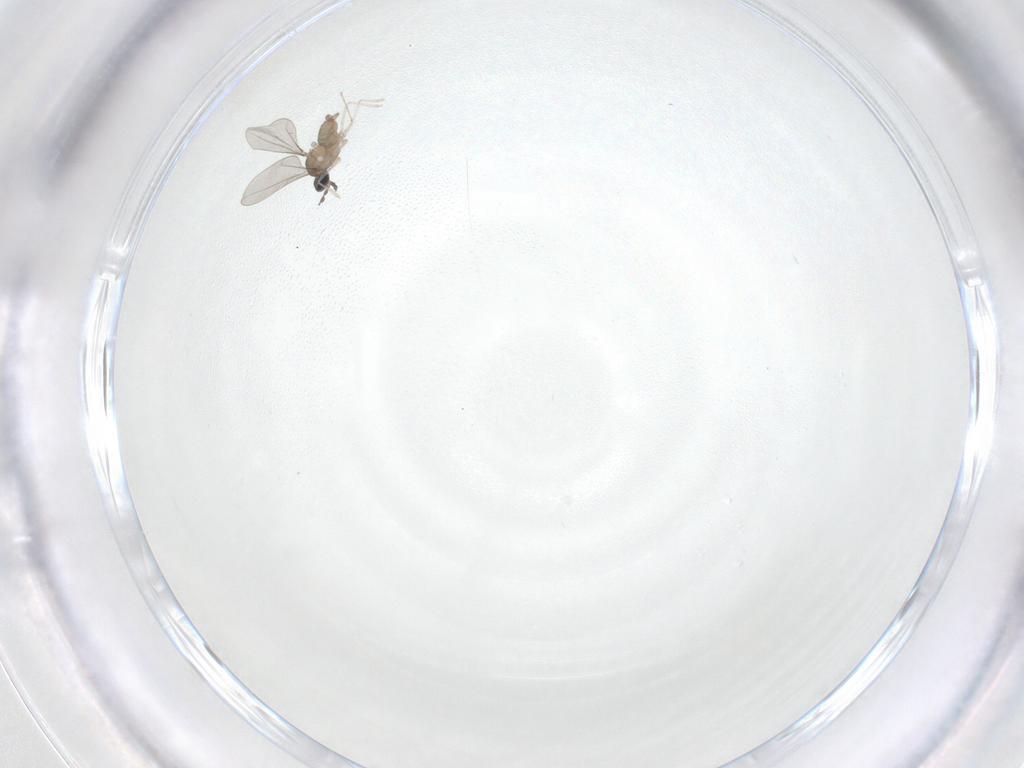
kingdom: Animalia
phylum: Arthropoda
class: Insecta
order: Diptera
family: Cecidomyiidae
